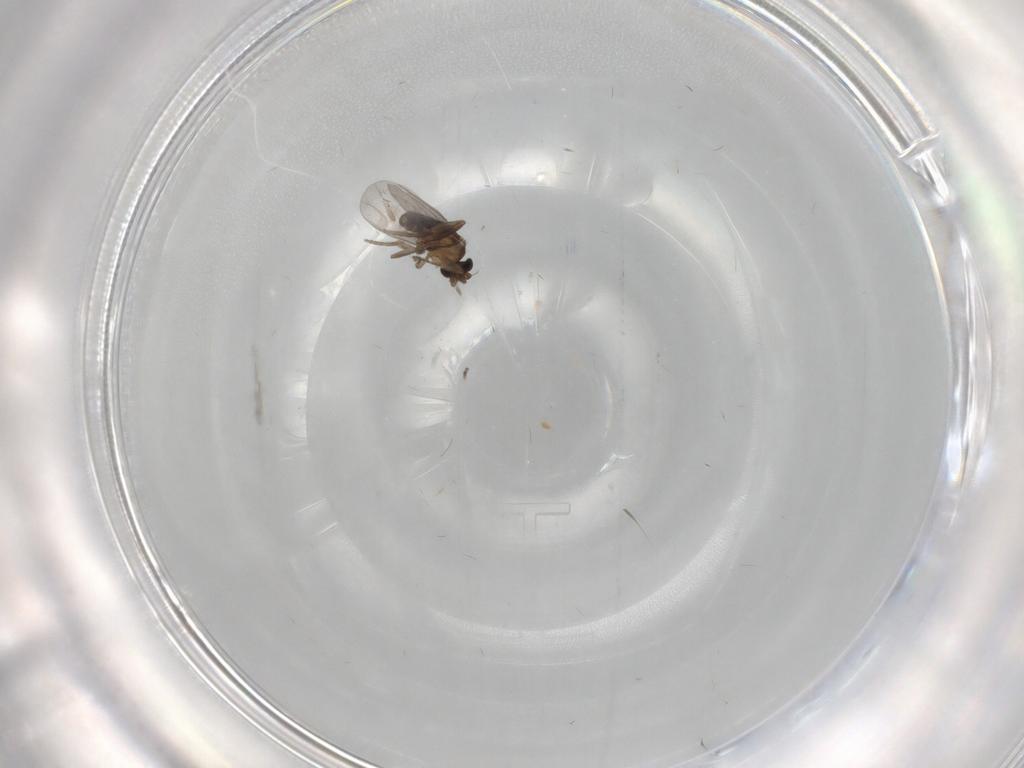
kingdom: Animalia
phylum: Arthropoda
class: Insecta
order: Diptera
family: Phoridae
